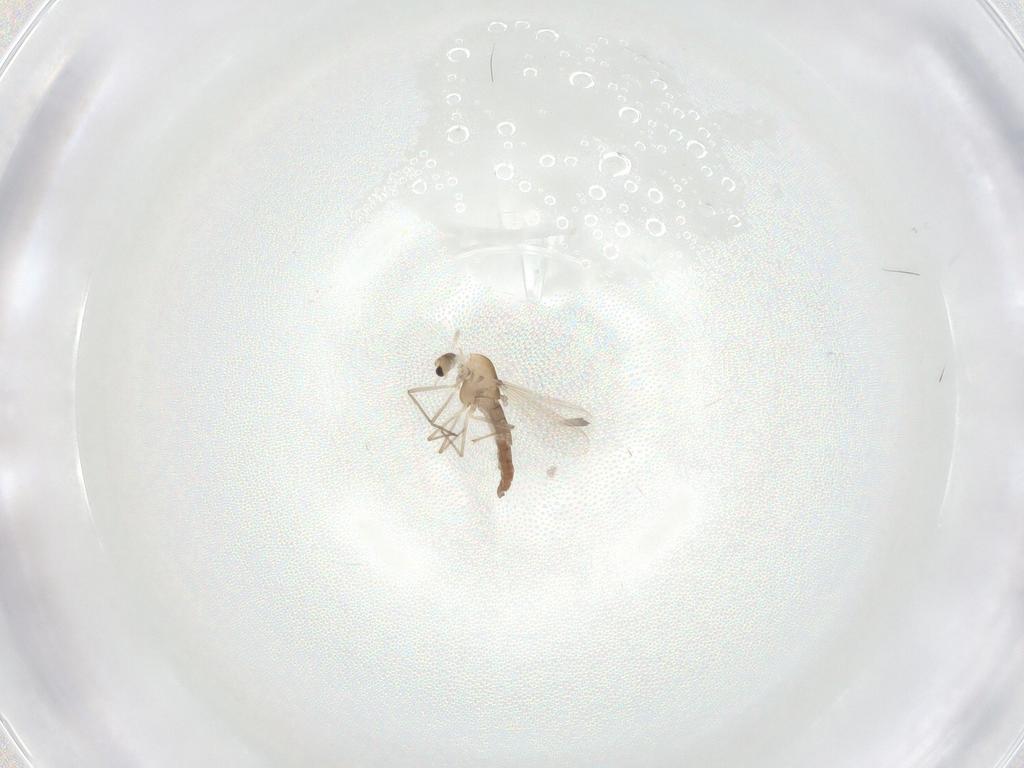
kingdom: Animalia
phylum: Arthropoda
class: Insecta
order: Diptera
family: Chironomidae
